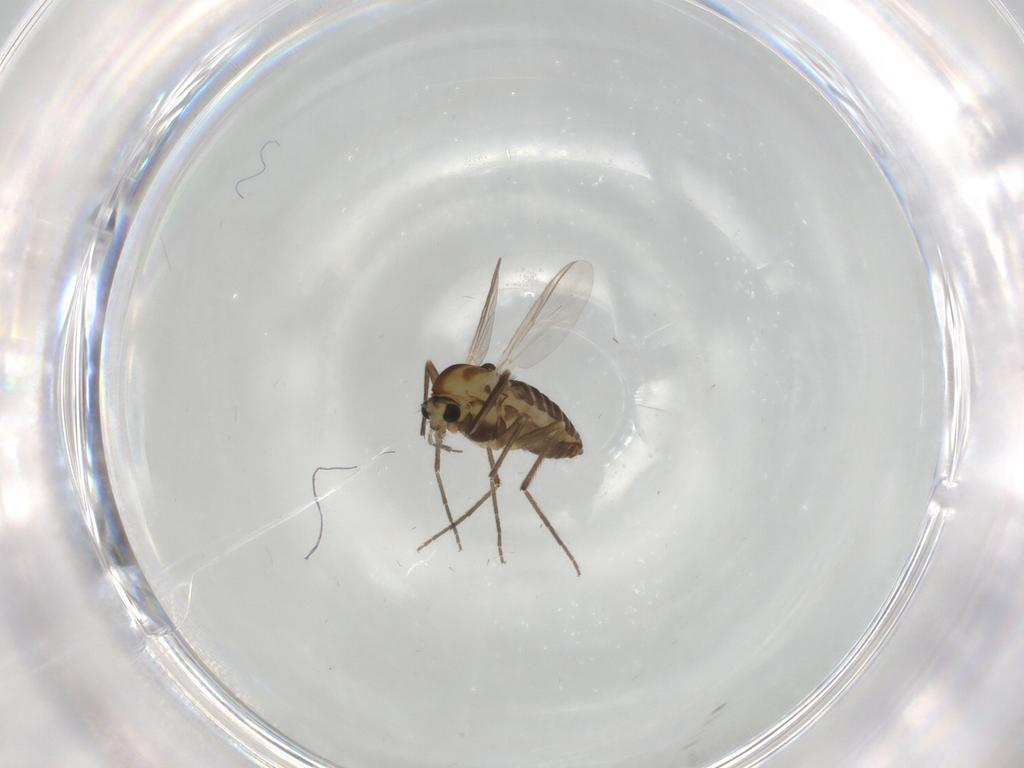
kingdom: Animalia
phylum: Arthropoda
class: Insecta
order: Diptera
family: Chironomidae
